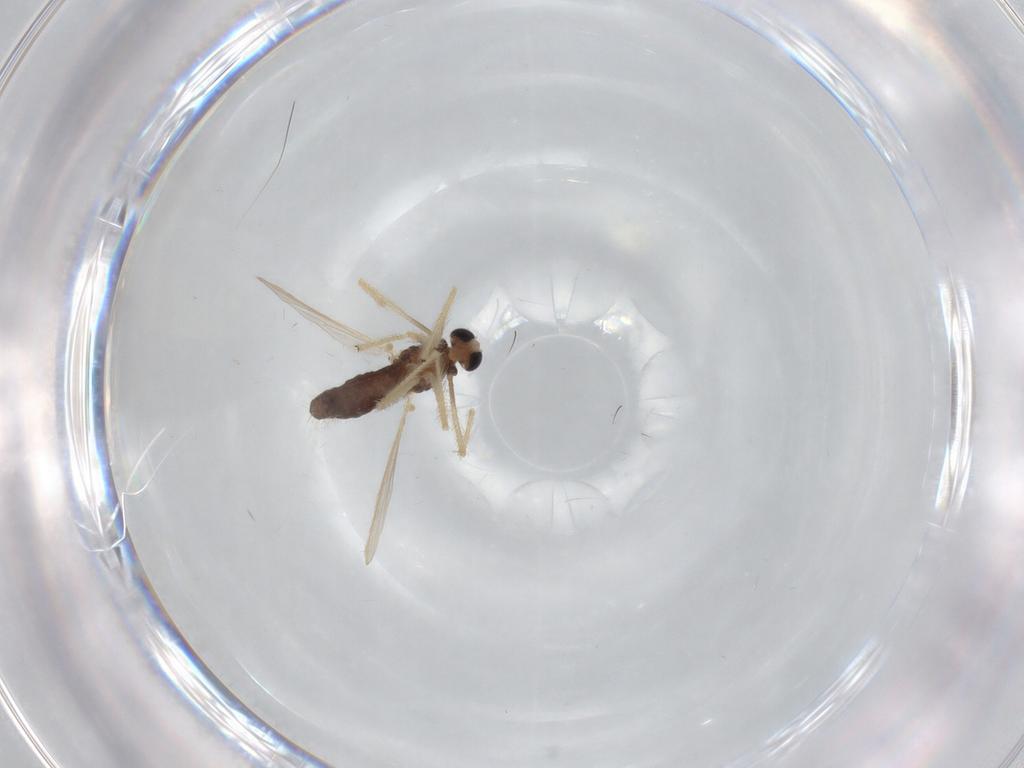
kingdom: Animalia
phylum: Arthropoda
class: Insecta
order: Diptera
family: Chironomidae
